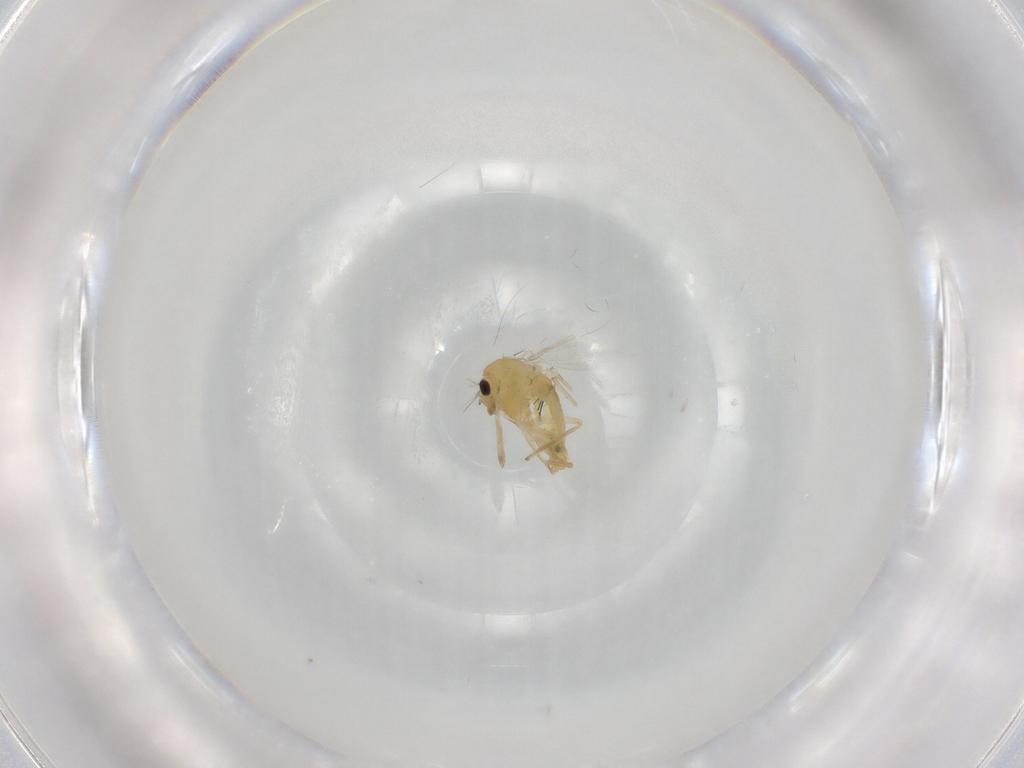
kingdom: Animalia
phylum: Arthropoda
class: Insecta
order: Diptera
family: Chironomidae
